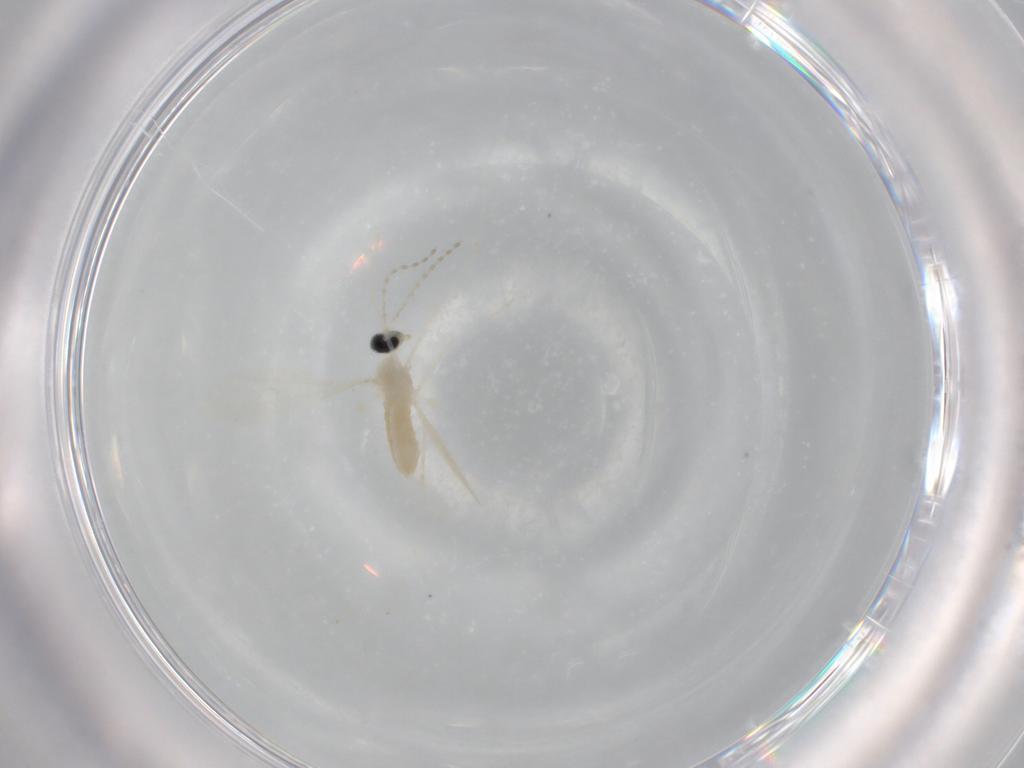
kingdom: Animalia
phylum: Arthropoda
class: Insecta
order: Diptera
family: Cecidomyiidae
